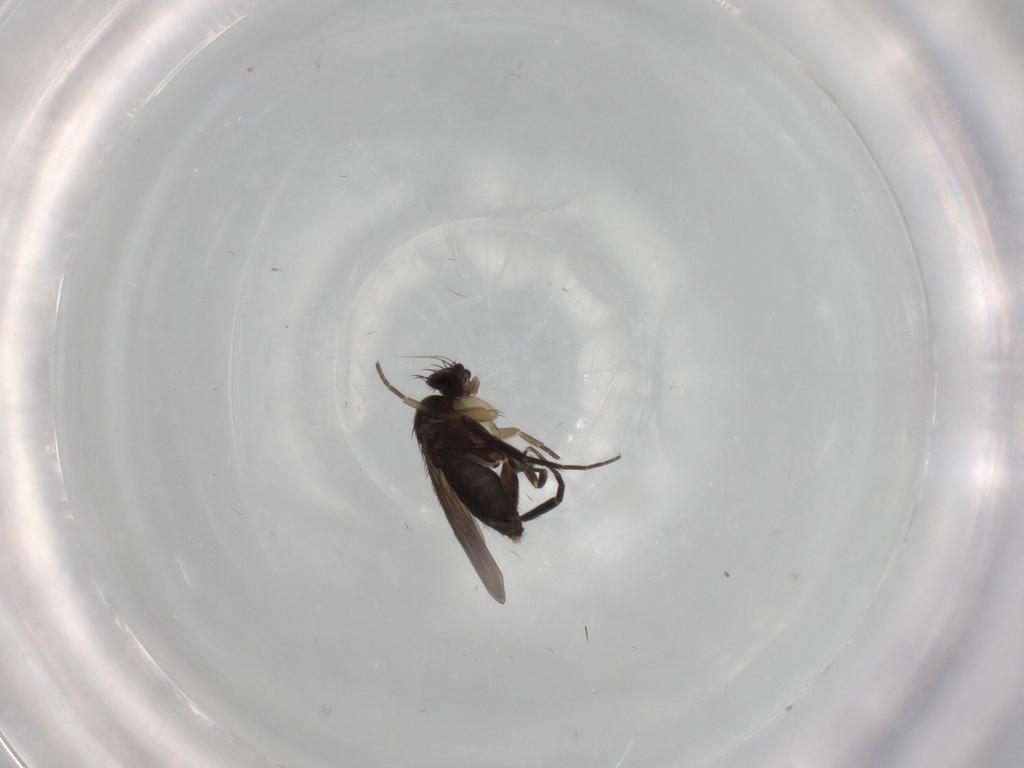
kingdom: Animalia
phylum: Arthropoda
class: Insecta
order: Diptera
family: Phoridae
